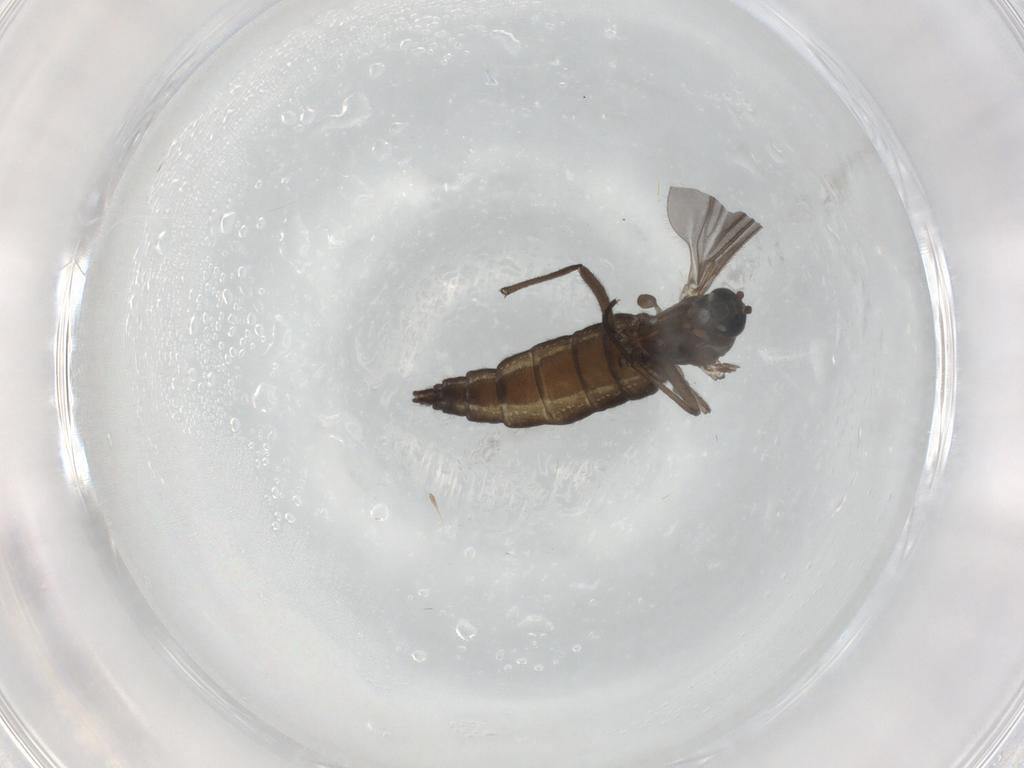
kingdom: Animalia
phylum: Arthropoda
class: Insecta
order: Diptera
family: Sciaridae
